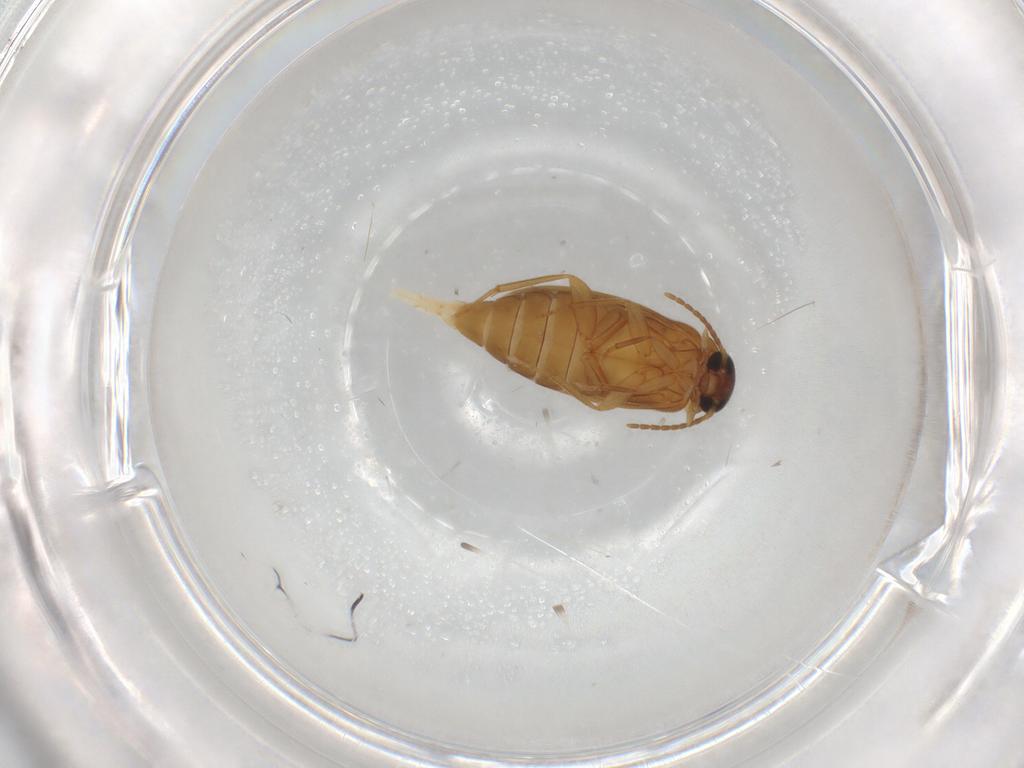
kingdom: Animalia
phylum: Arthropoda
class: Insecta
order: Coleoptera
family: Scraptiidae
